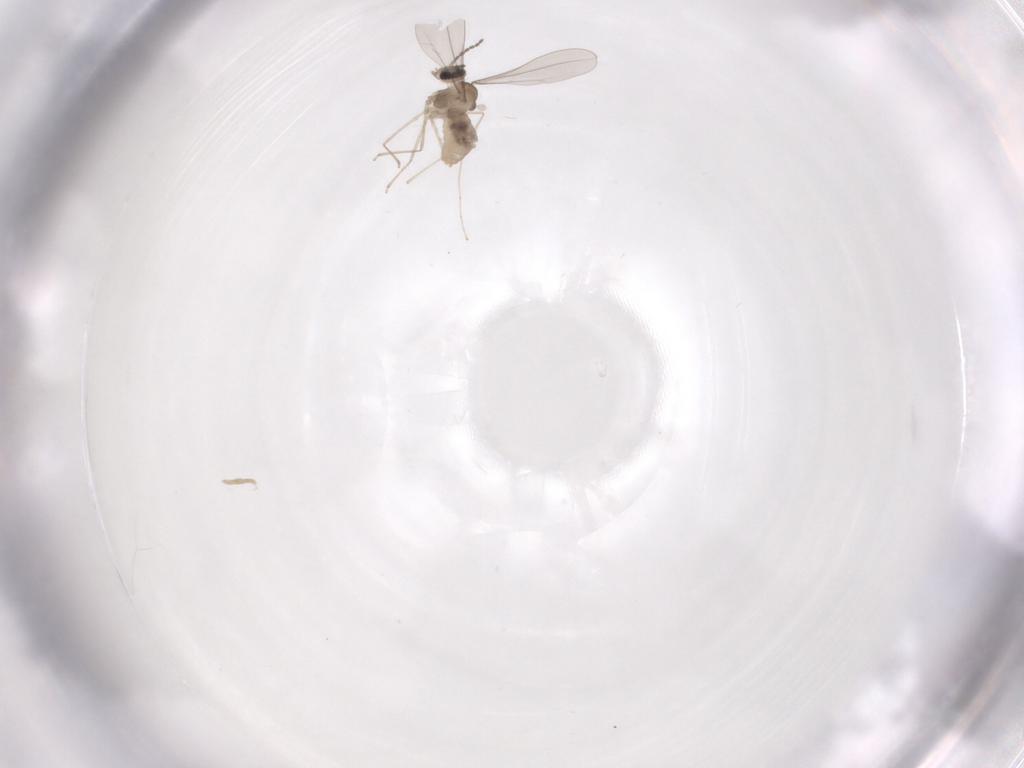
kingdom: Animalia
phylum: Arthropoda
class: Insecta
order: Diptera
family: Cecidomyiidae
